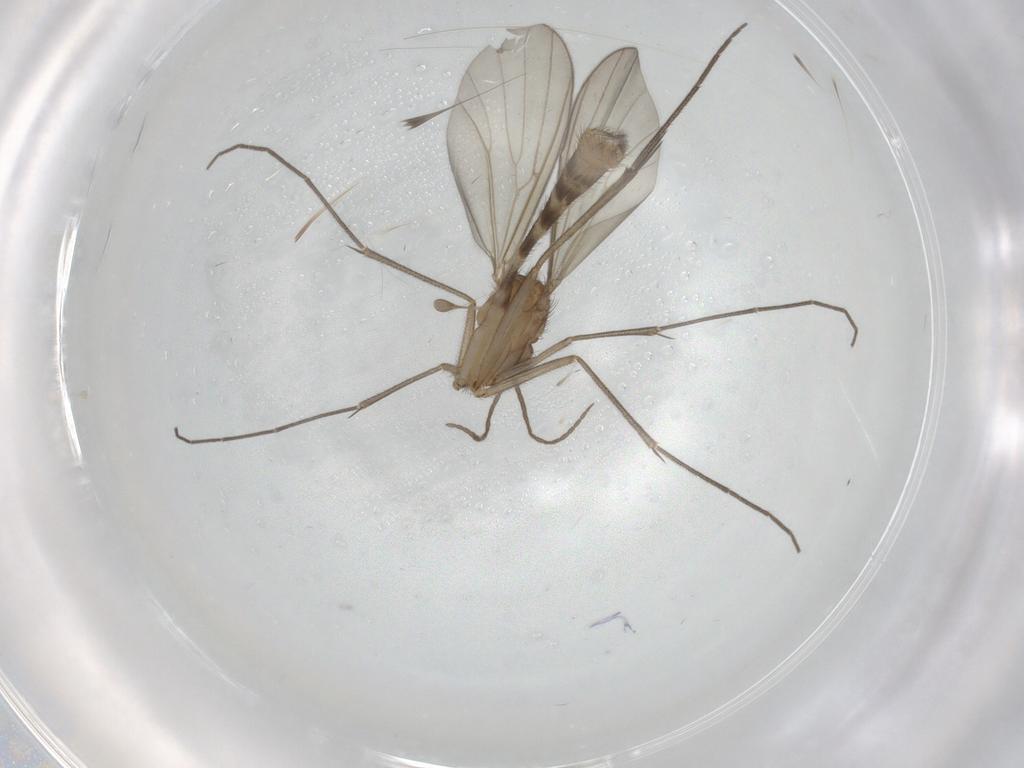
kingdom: Animalia
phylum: Arthropoda
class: Insecta
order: Diptera
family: Mycetophilidae
